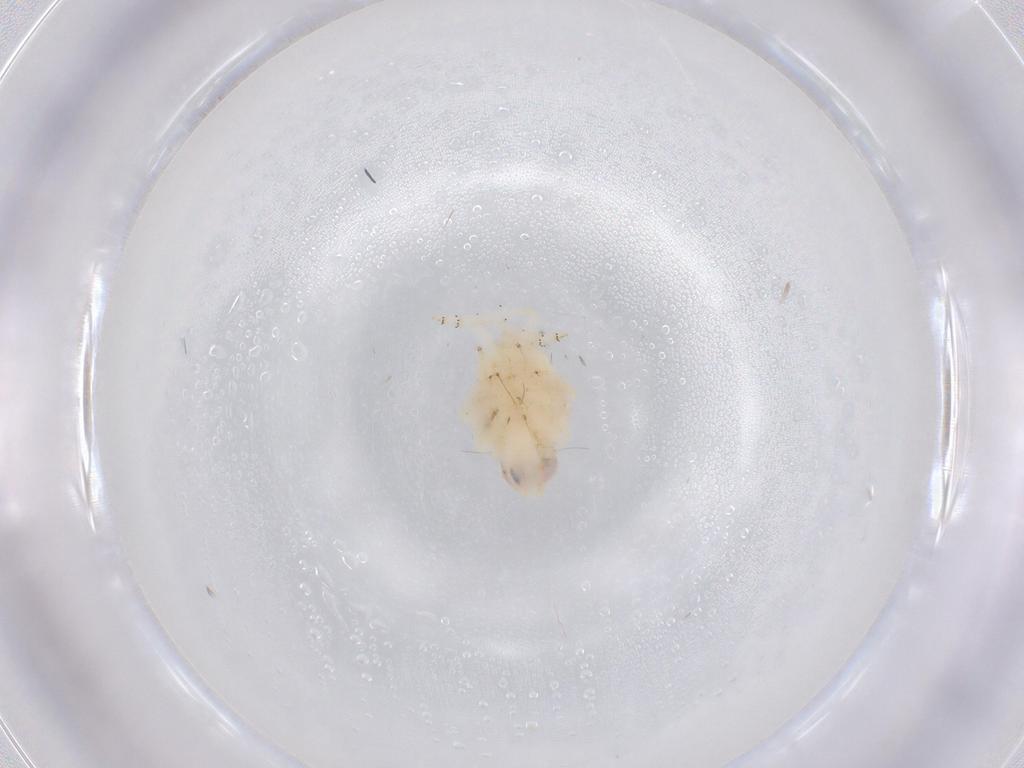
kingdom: Animalia
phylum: Arthropoda
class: Insecta
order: Hemiptera
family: Nogodinidae
